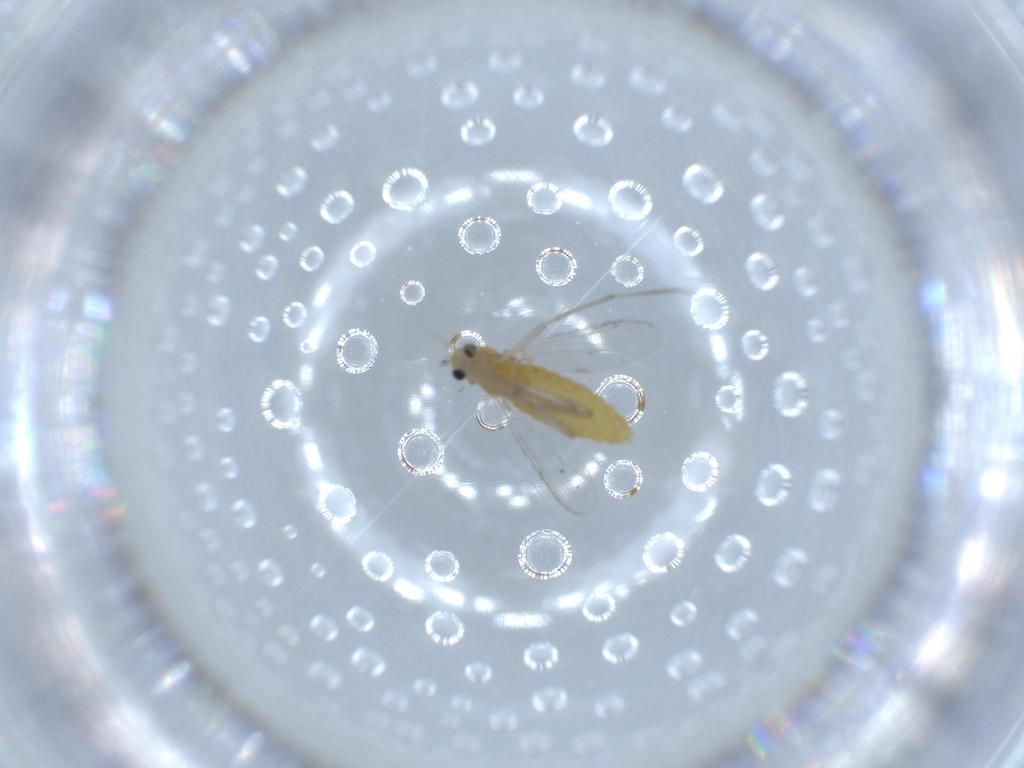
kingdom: Animalia
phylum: Arthropoda
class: Insecta
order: Diptera
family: Chironomidae
